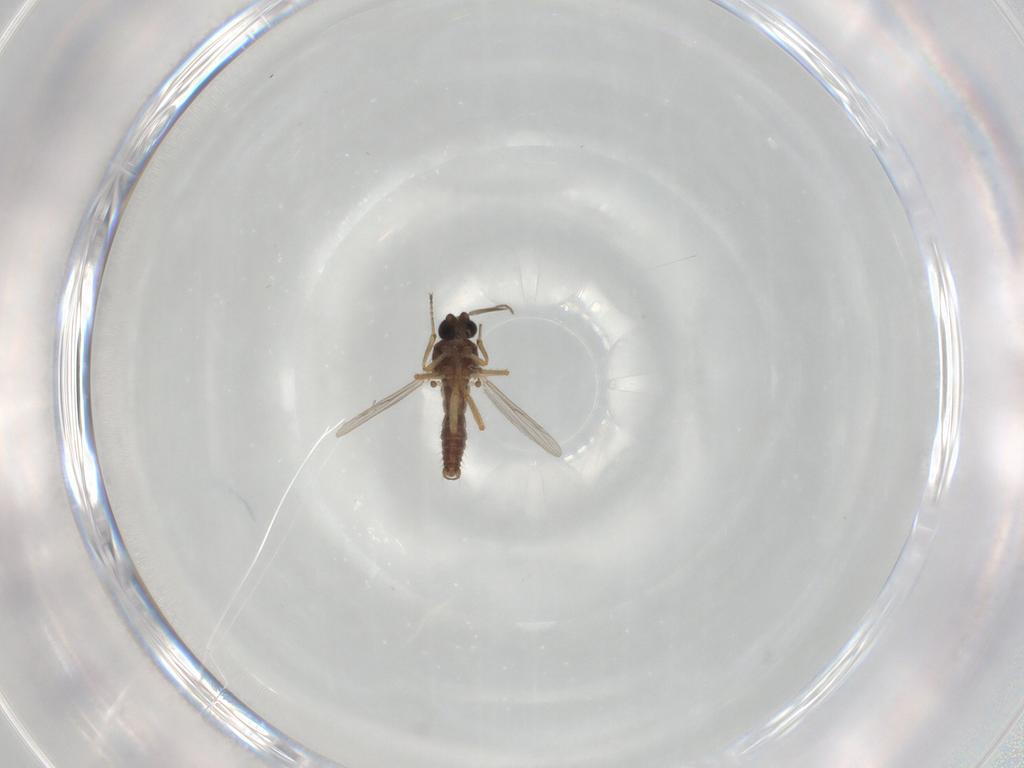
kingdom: Animalia
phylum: Arthropoda
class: Insecta
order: Diptera
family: Ceratopogonidae
